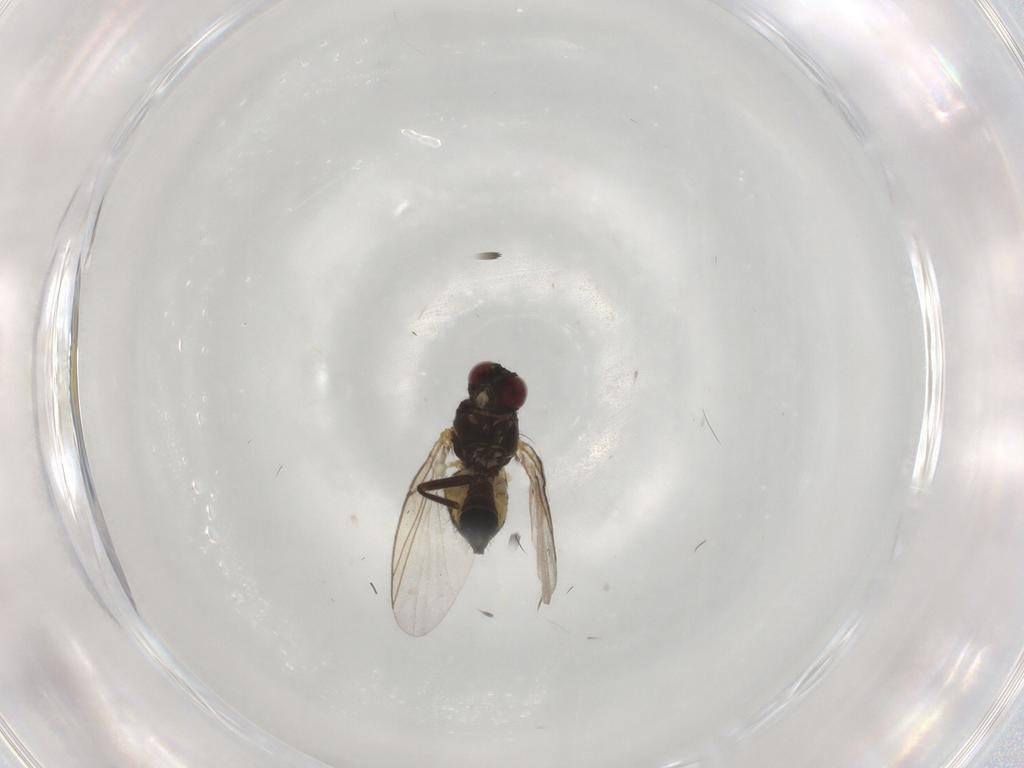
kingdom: Animalia
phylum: Arthropoda
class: Insecta
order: Diptera
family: Agromyzidae
